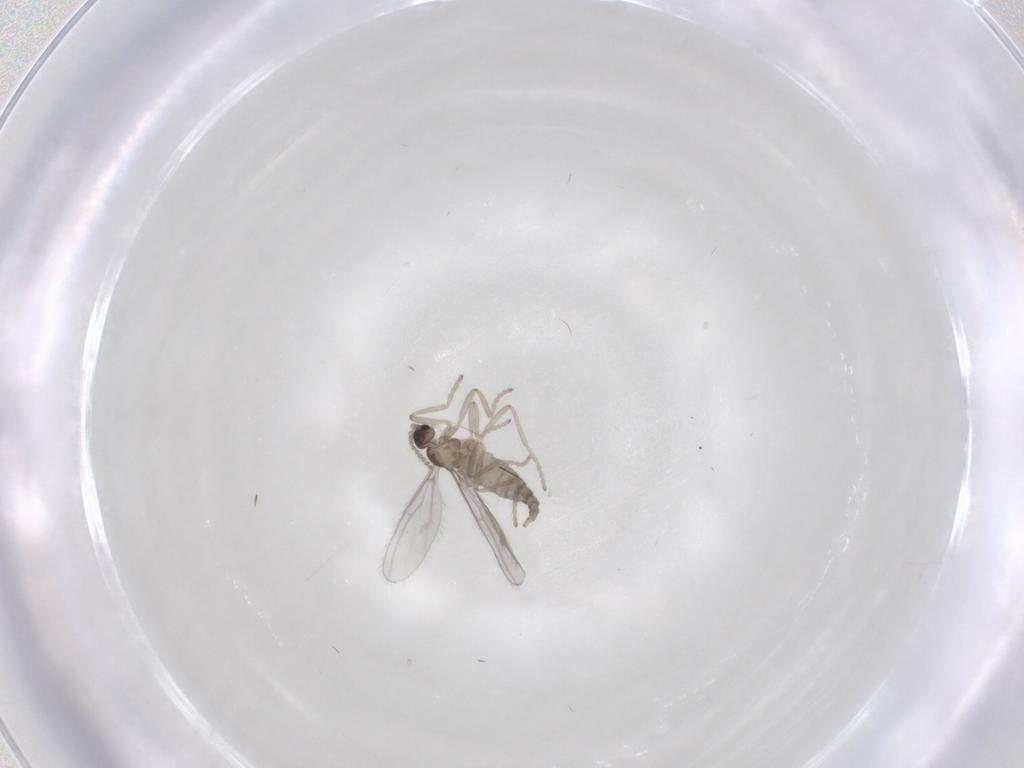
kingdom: Animalia
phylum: Arthropoda
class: Insecta
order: Diptera
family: Cecidomyiidae
